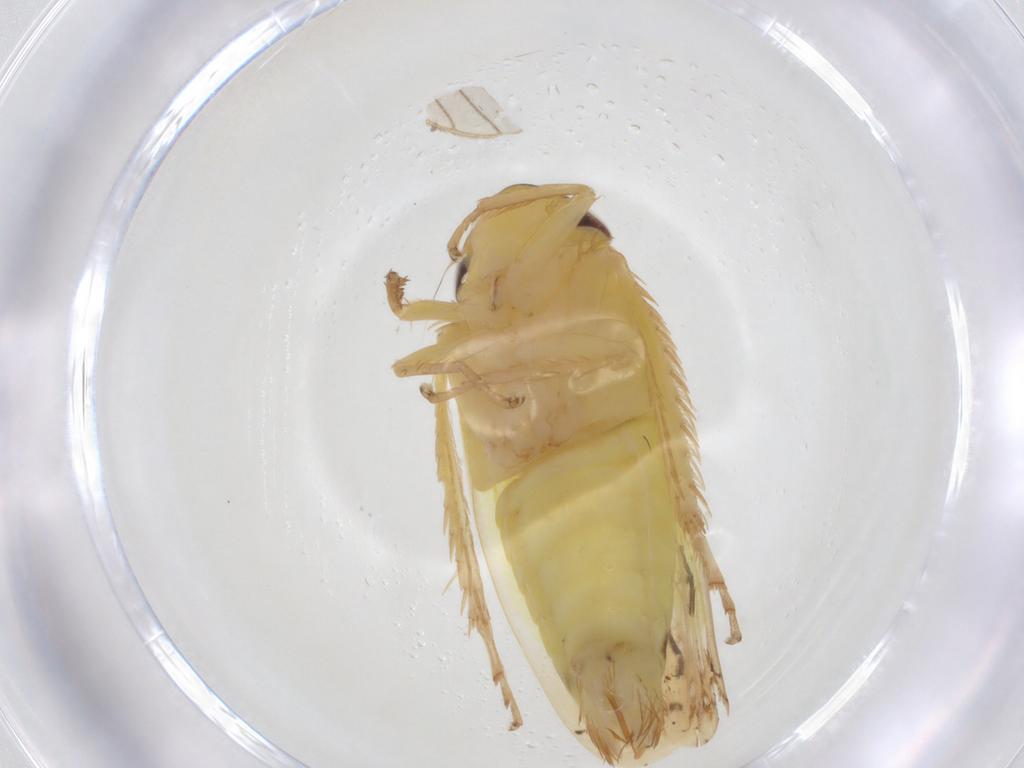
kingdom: Animalia
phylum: Arthropoda
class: Insecta
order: Hemiptera
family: Cicadellidae
